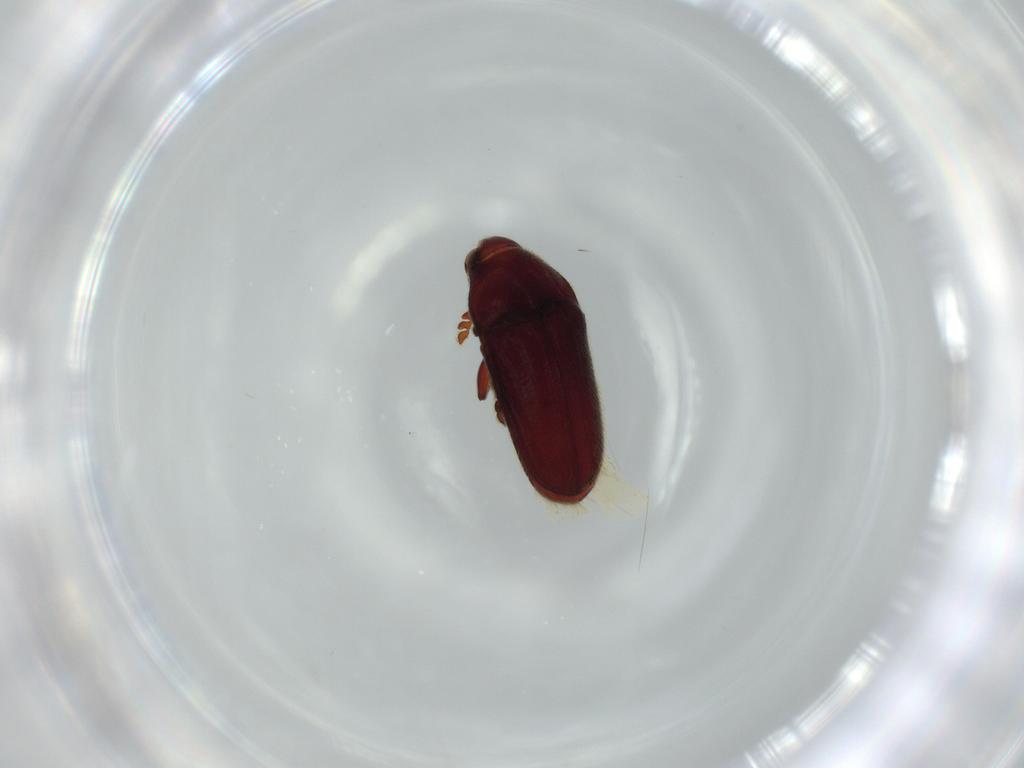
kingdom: Animalia
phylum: Arthropoda
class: Insecta
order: Coleoptera
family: Throscidae
